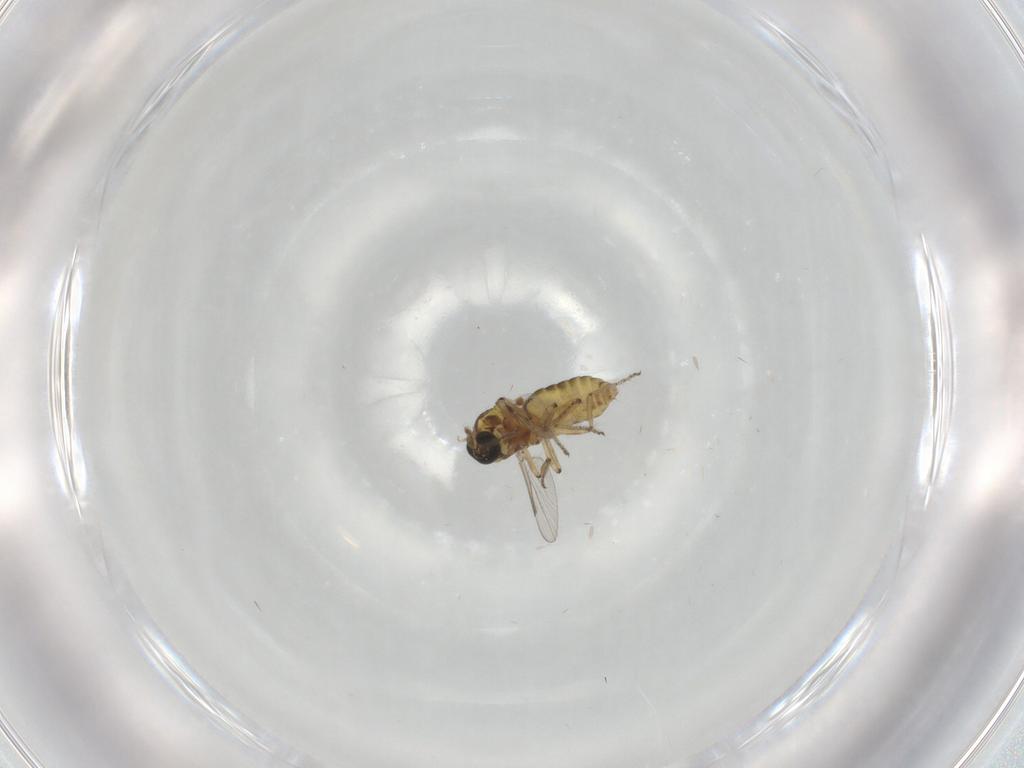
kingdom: Animalia
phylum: Arthropoda
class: Insecta
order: Diptera
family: Ceratopogonidae
